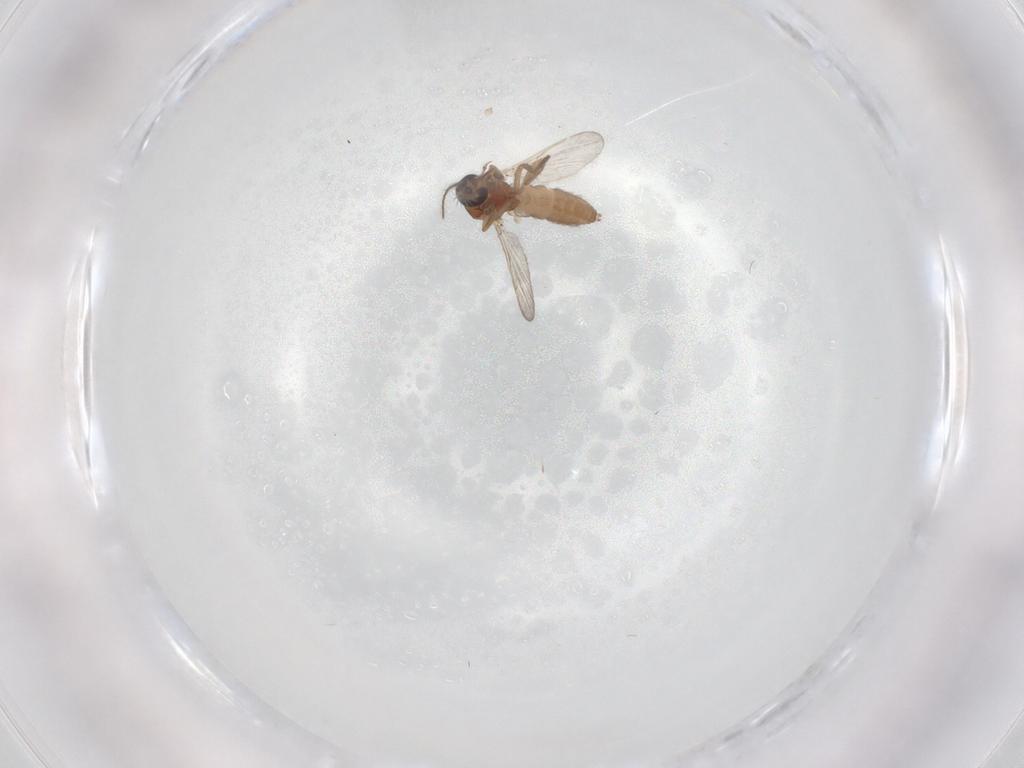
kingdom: Animalia
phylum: Arthropoda
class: Insecta
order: Diptera
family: Ceratopogonidae
